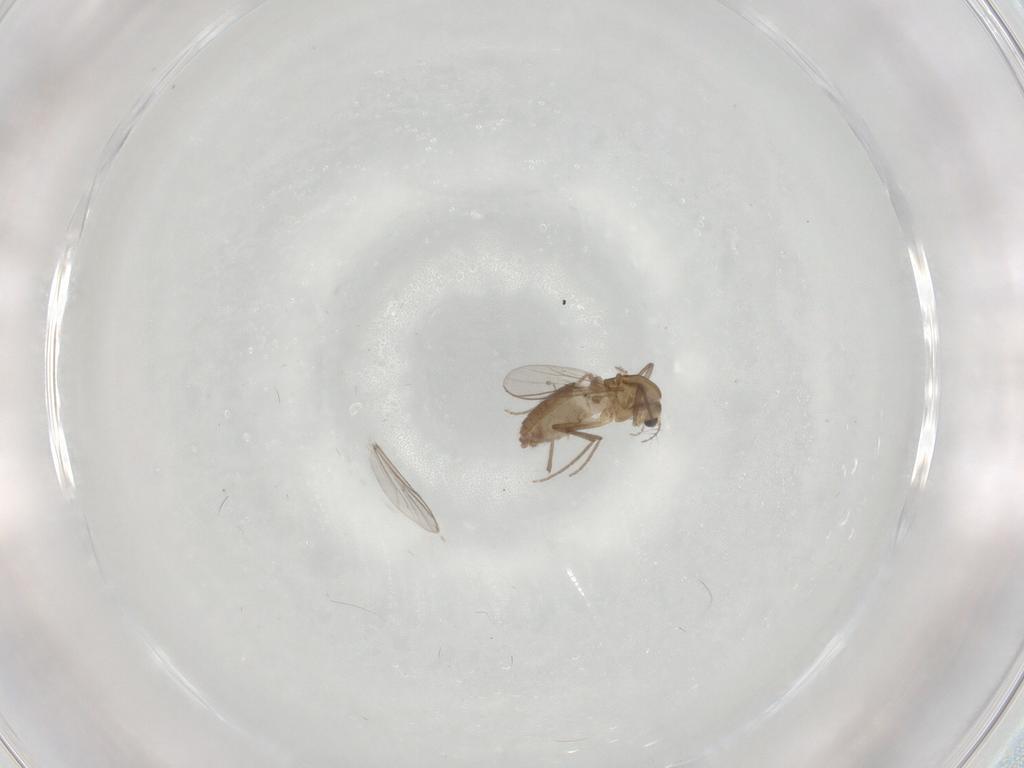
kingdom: Animalia
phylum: Arthropoda
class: Insecta
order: Diptera
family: Chironomidae
